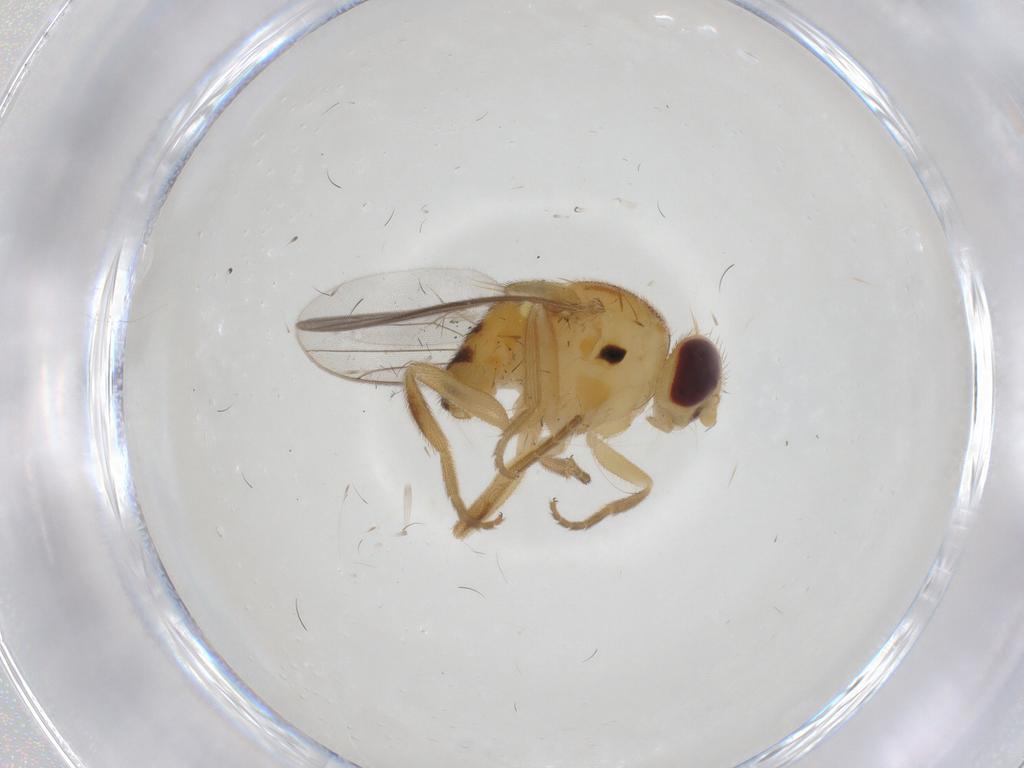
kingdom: Animalia
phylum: Arthropoda
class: Insecta
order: Diptera
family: Chloropidae
